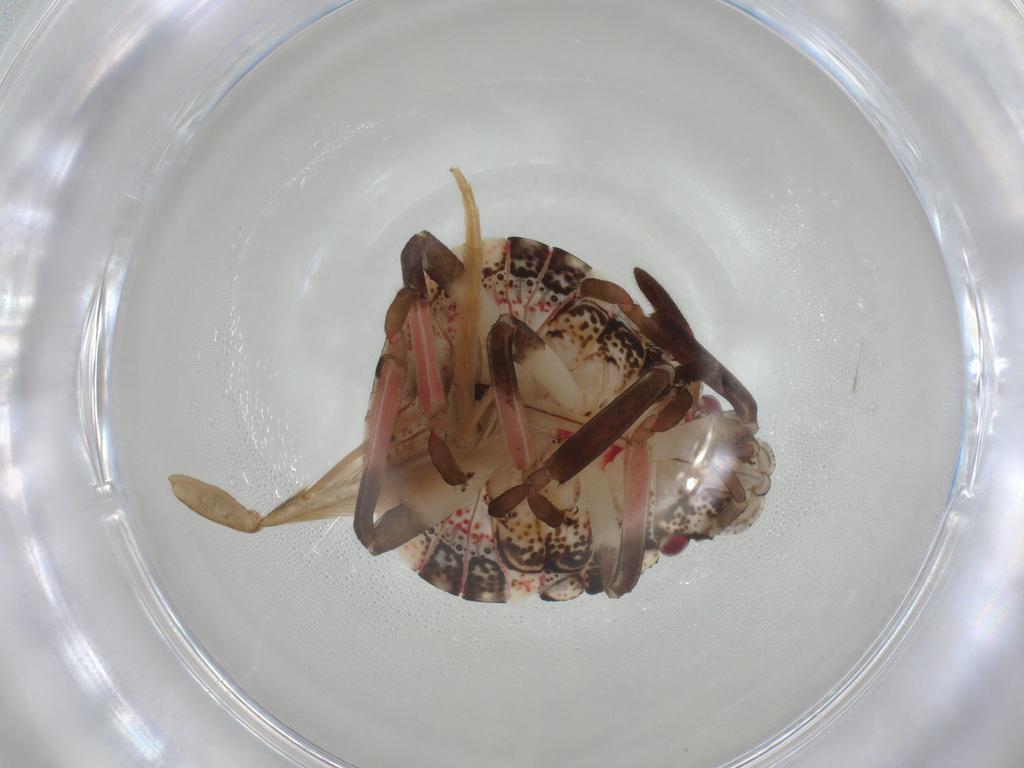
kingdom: Animalia
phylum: Arthropoda
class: Insecta
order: Hemiptera
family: Pentatomidae
